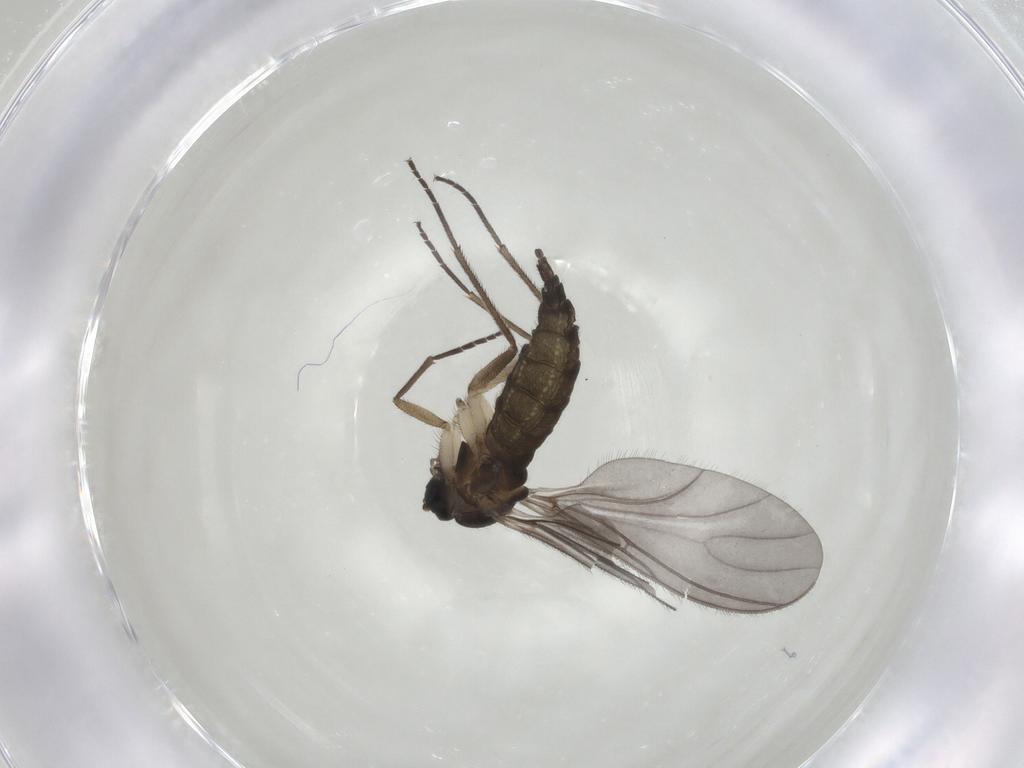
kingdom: Animalia
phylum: Arthropoda
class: Insecta
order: Diptera
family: Sciaridae
